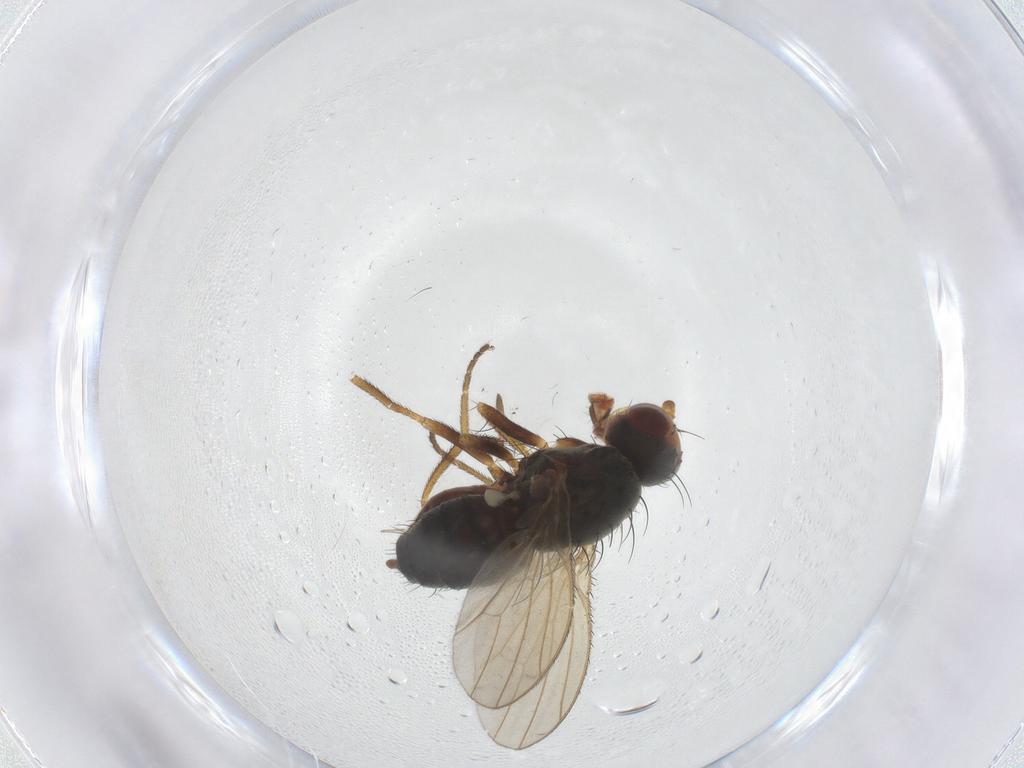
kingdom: Animalia
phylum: Arthropoda
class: Insecta
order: Diptera
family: Heleomyzidae
